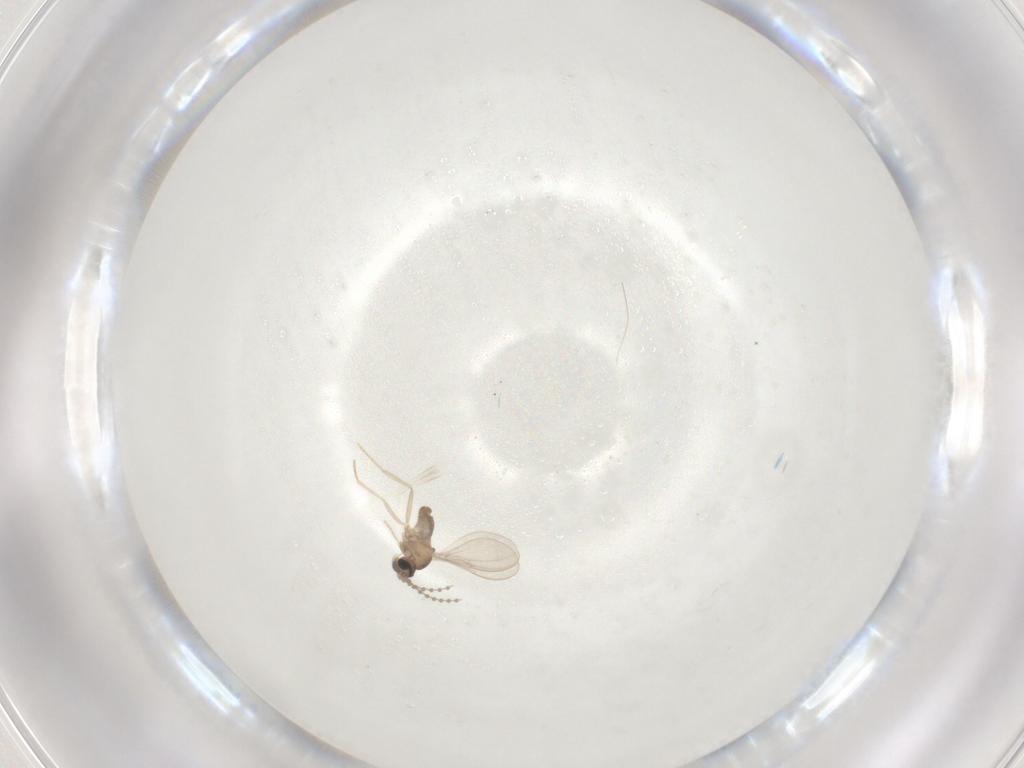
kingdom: Animalia
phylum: Arthropoda
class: Insecta
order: Diptera
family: Cecidomyiidae
